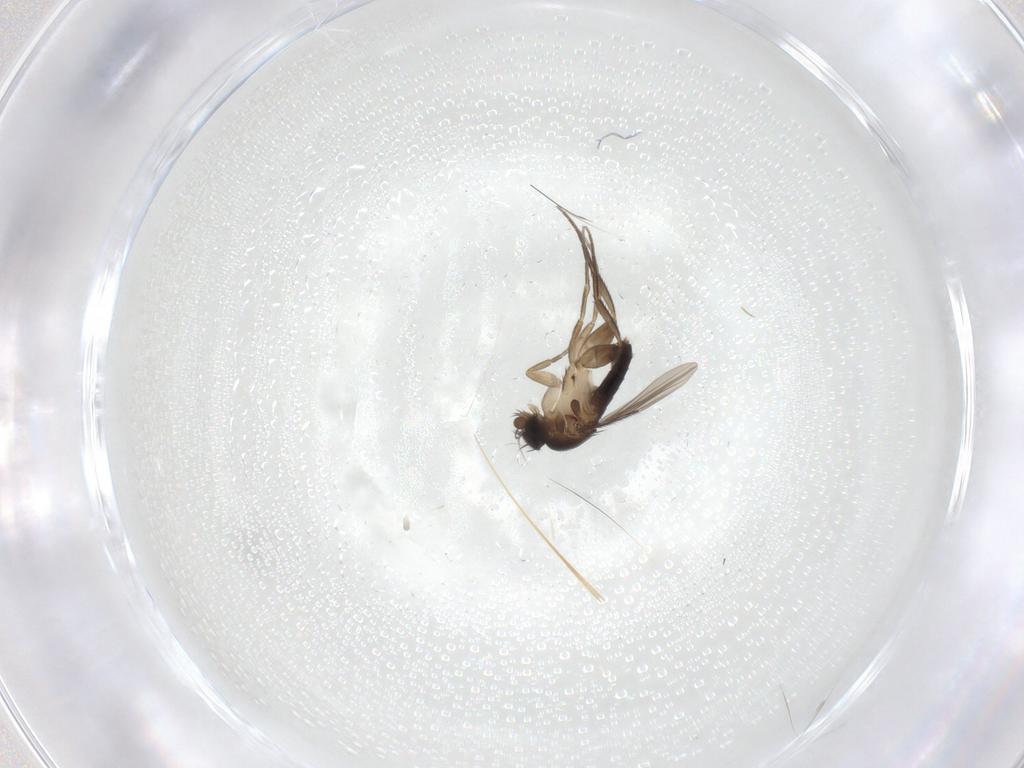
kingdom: Animalia
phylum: Arthropoda
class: Insecta
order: Diptera
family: Phoridae
